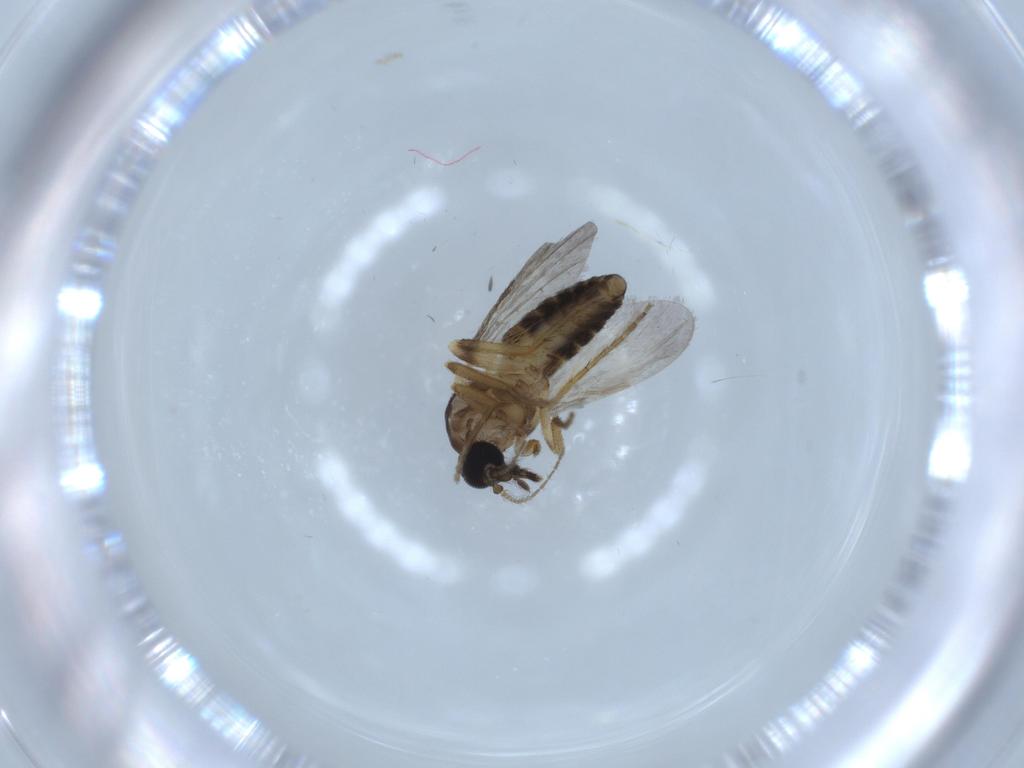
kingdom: Animalia
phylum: Arthropoda
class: Insecta
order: Diptera
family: Ceratopogonidae
